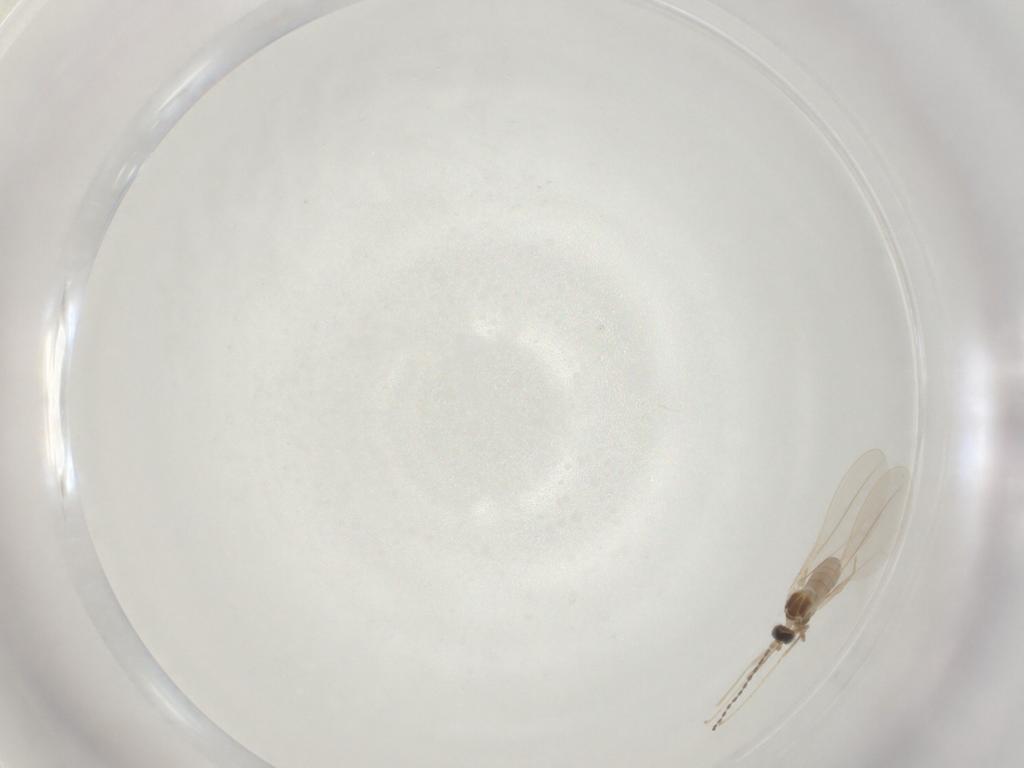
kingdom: Animalia
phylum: Arthropoda
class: Insecta
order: Diptera
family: Cecidomyiidae
